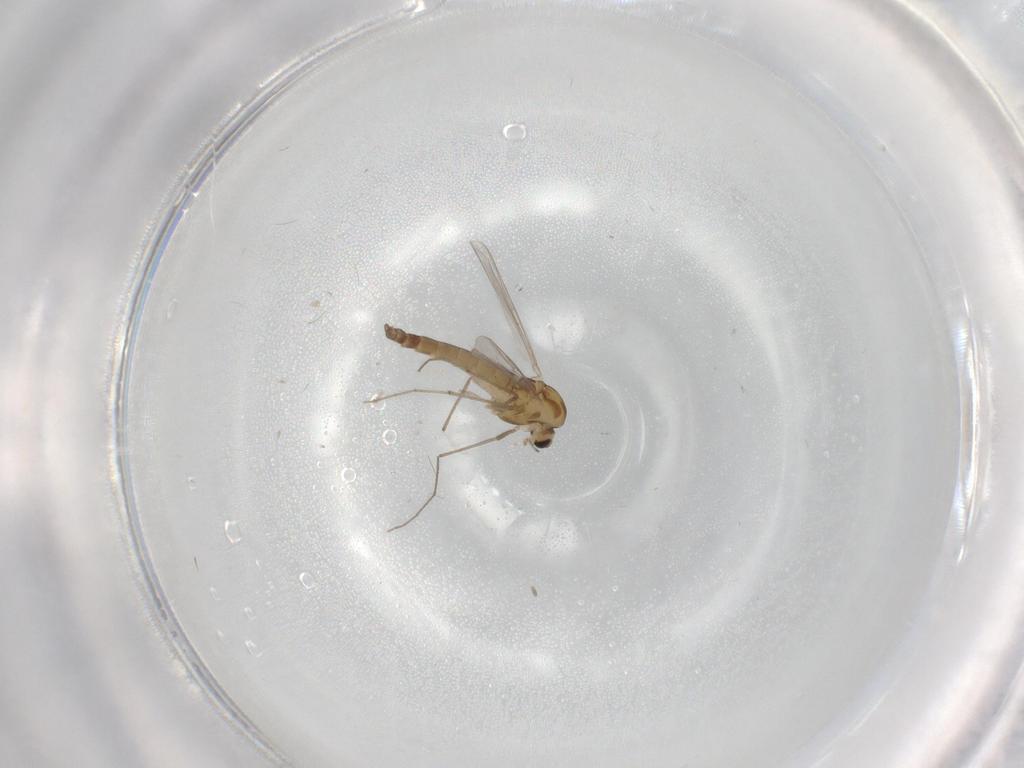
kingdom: Animalia
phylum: Arthropoda
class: Insecta
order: Diptera
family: Chironomidae
